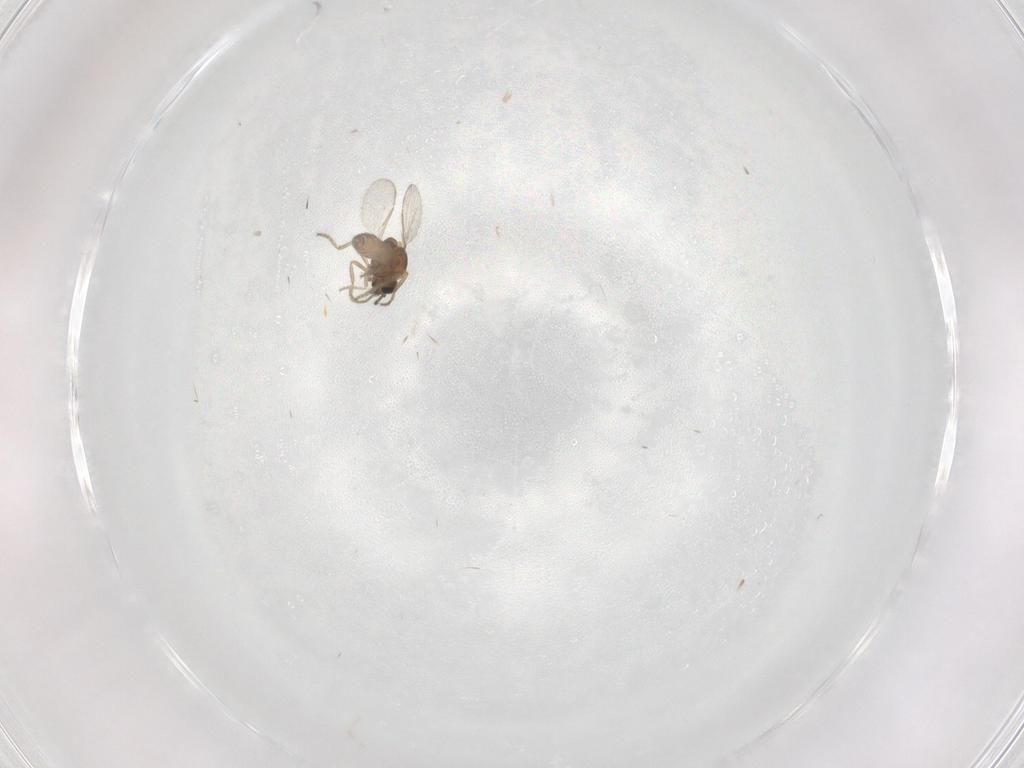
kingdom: Animalia
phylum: Arthropoda
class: Insecta
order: Diptera
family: Ceratopogonidae
